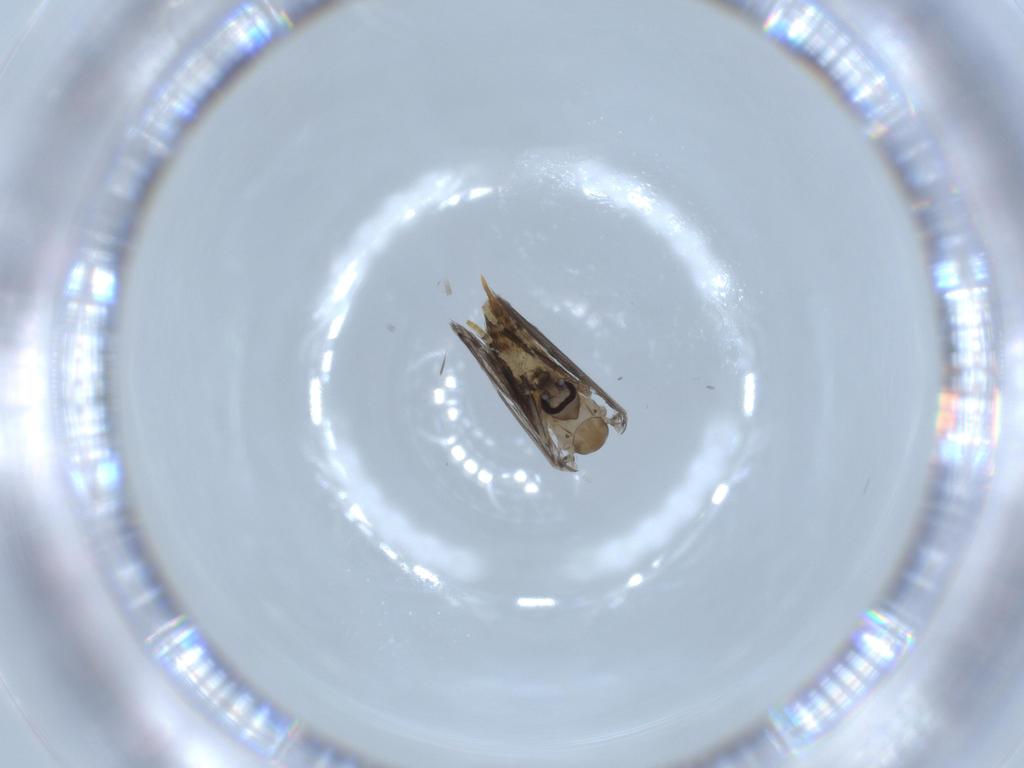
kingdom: Animalia
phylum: Arthropoda
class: Insecta
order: Diptera
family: Psychodidae
